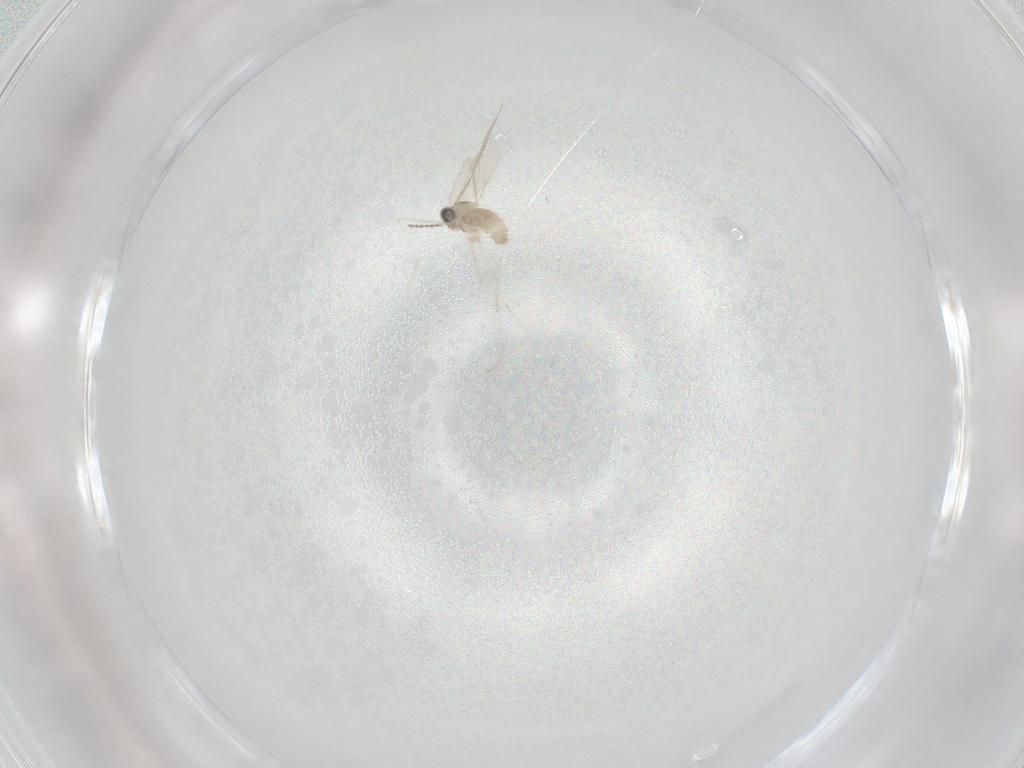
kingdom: Animalia
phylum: Arthropoda
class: Insecta
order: Diptera
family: Cecidomyiidae
